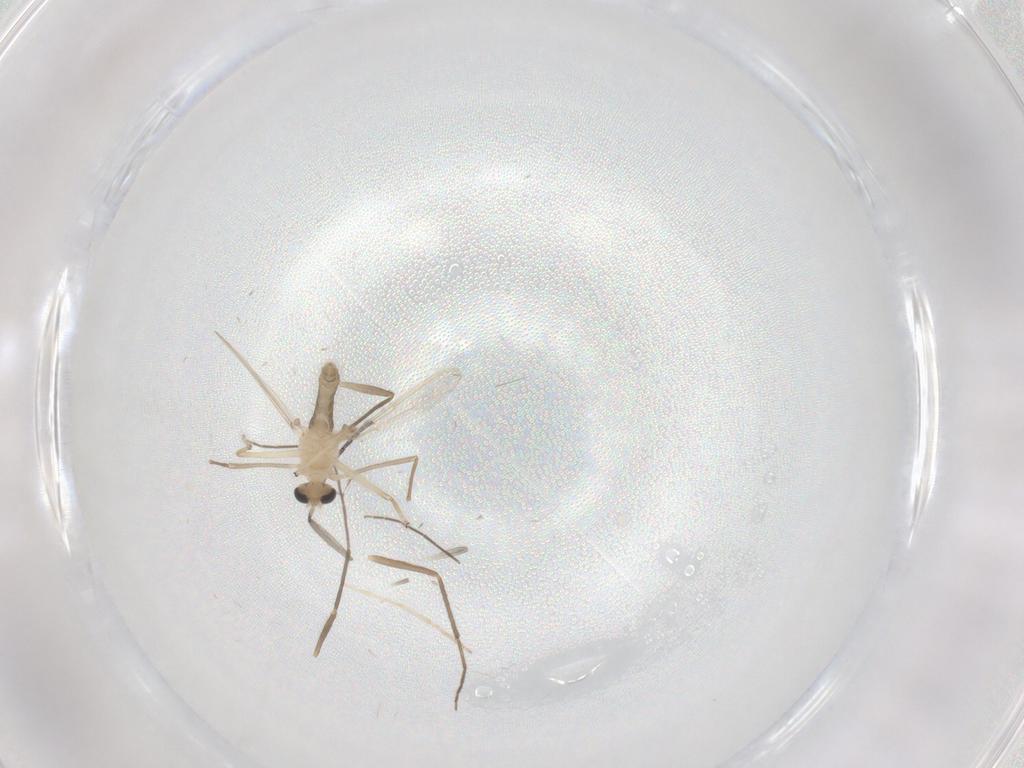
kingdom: Animalia
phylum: Arthropoda
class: Insecta
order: Diptera
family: Chironomidae
